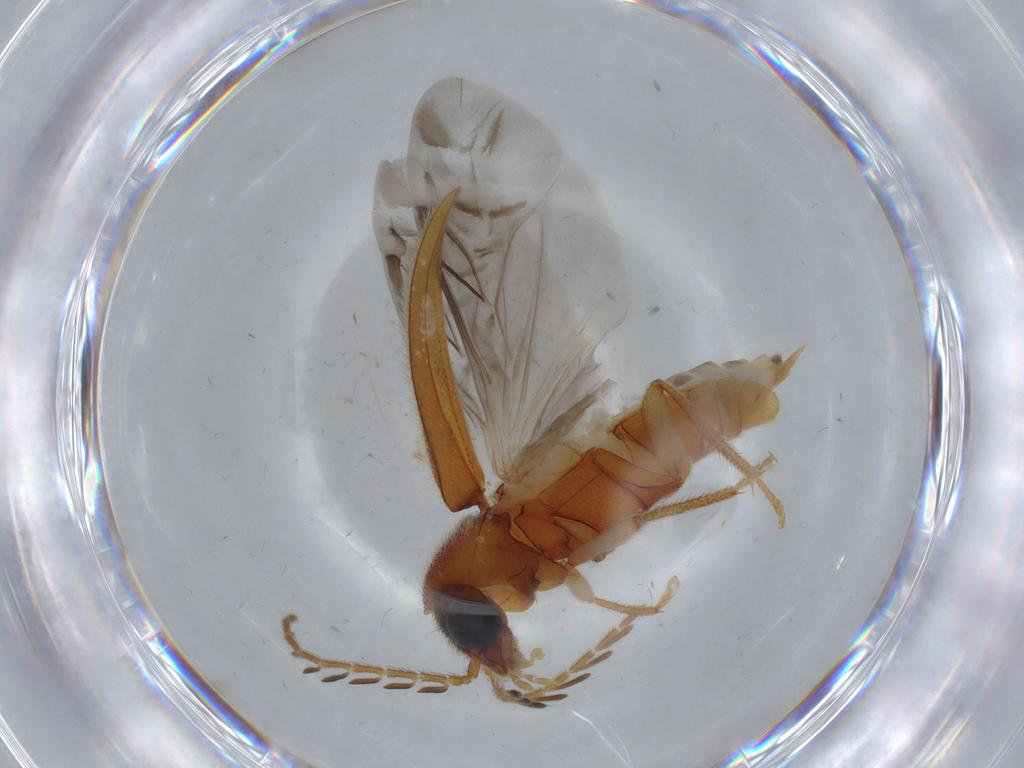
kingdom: Animalia
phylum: Arthropoda
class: Insecta
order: Coleoptera
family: Ptilodactylidae
